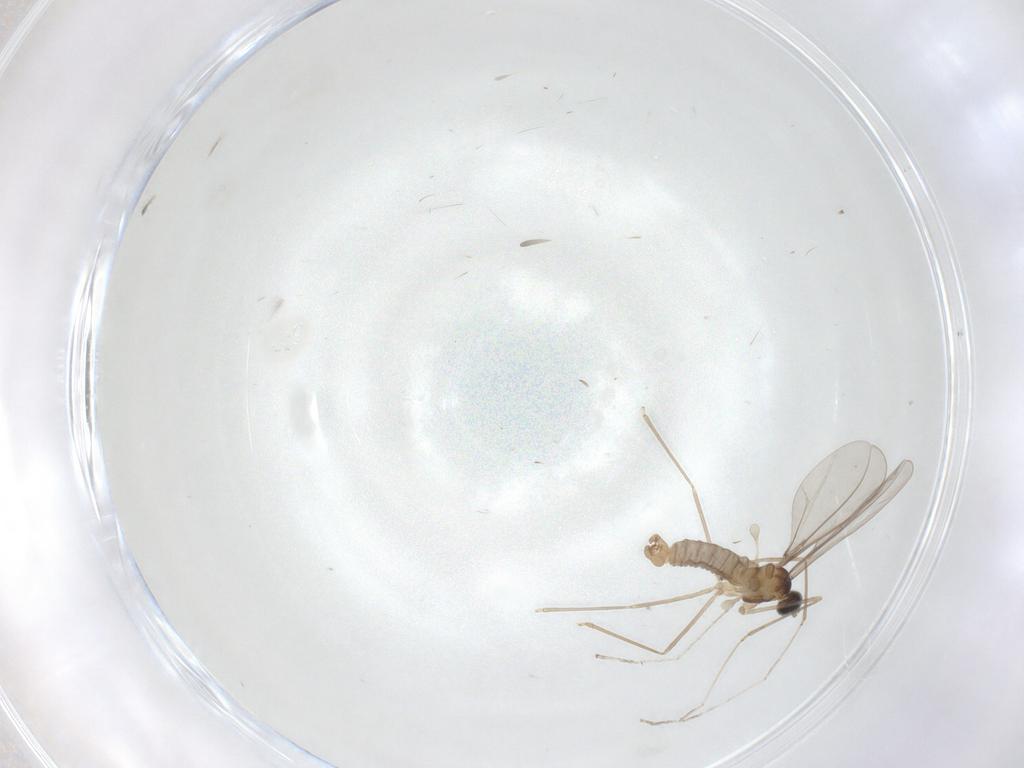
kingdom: Animalia
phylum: Arthropoda
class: Insecta
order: Diptera
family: Cecidomyiidae
